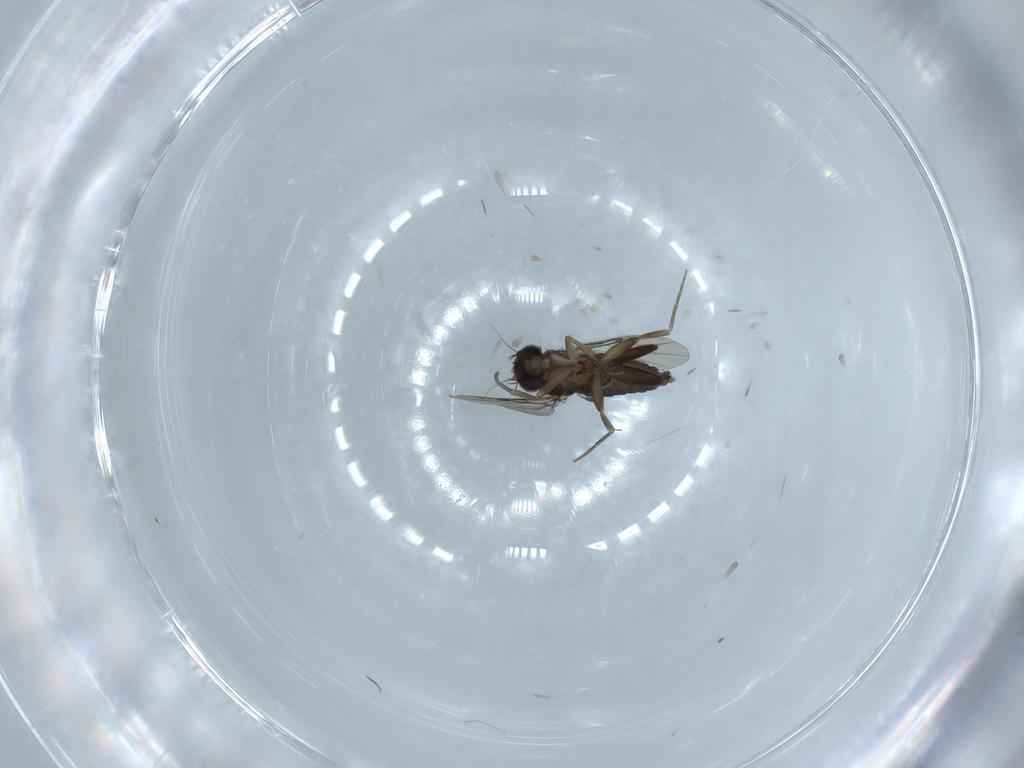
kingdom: Animalia
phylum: Arthropoda
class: Insecta
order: Diptera
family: Phoridae
